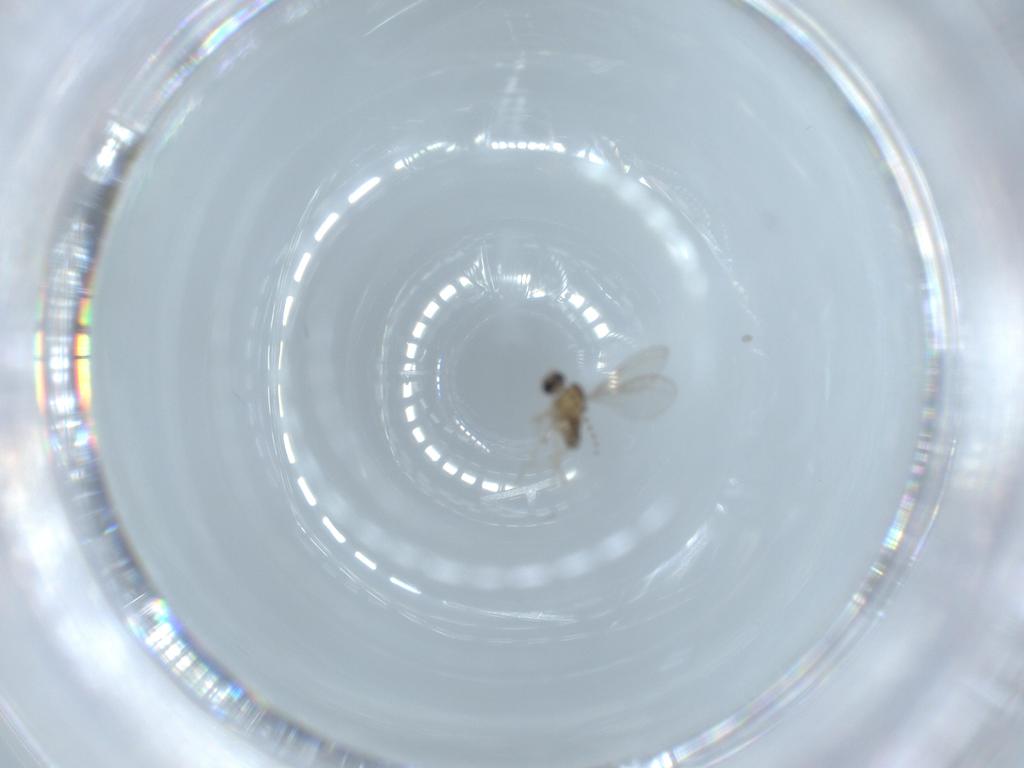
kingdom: Animalia
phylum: Arthropoda
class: Insecta
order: Diptera
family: Cecidomyiidae
